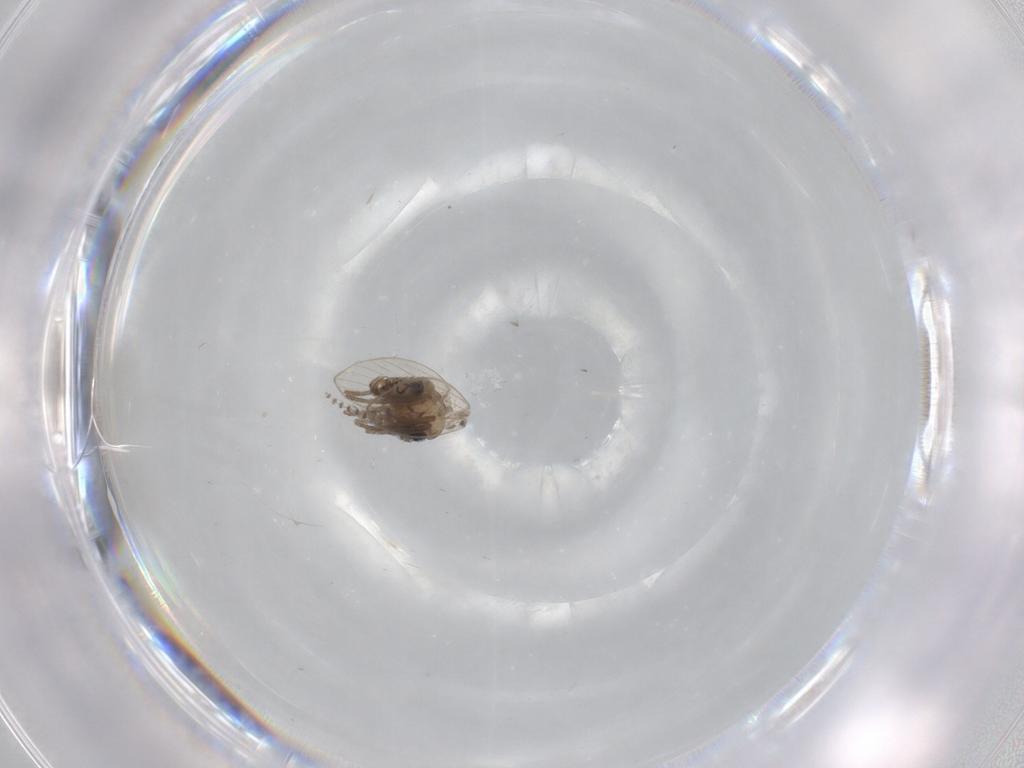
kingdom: Animalia
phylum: Arthropoda
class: Insecta
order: Diptera
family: Psychodidae
